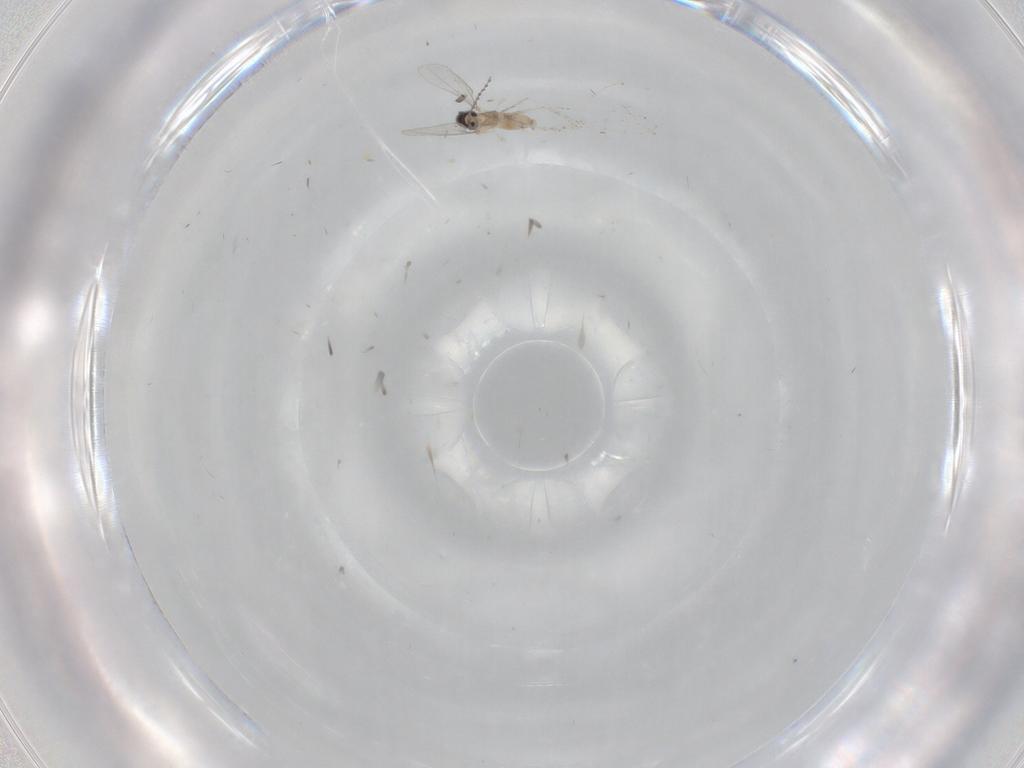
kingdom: Animalia
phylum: Arthropoda
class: Insecta
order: Diptera
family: Cecidomyiidae
